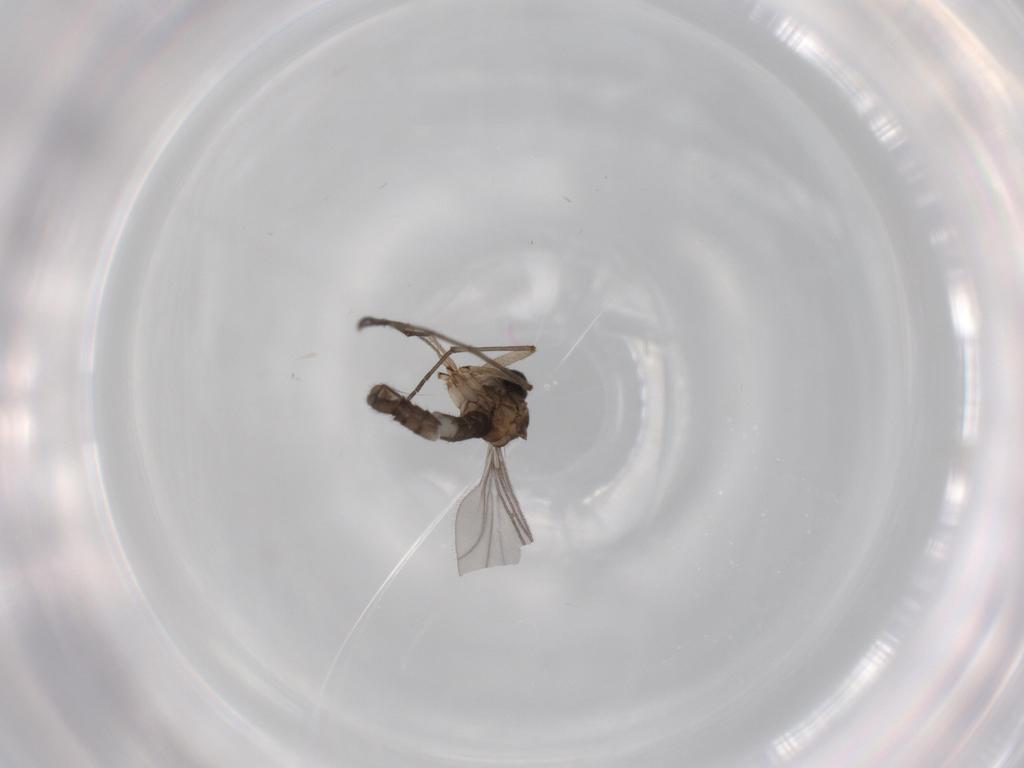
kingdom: Animalia
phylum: Arthropoda
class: Insecta
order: Diptera
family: Sciaridae
